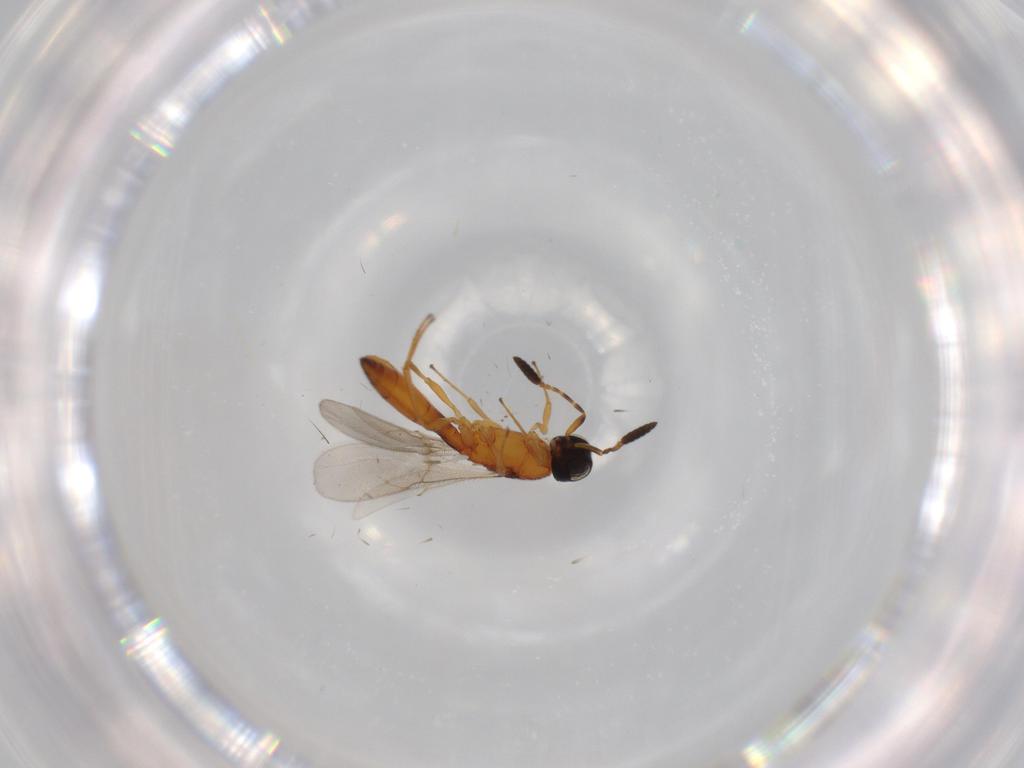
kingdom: Animalia
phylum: Arthropoda
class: Insecta
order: Hymenoptera
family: Scelionidae
